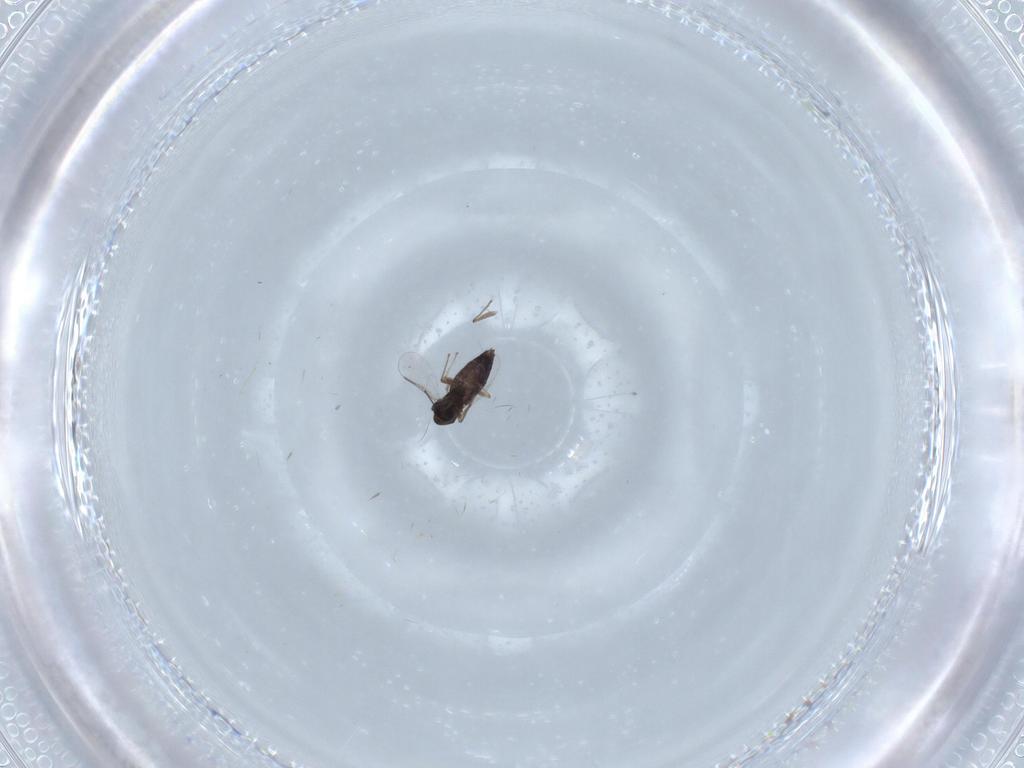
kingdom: Animalia
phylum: Arthropoda
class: Insecta
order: Diptera
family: Chironomidae
